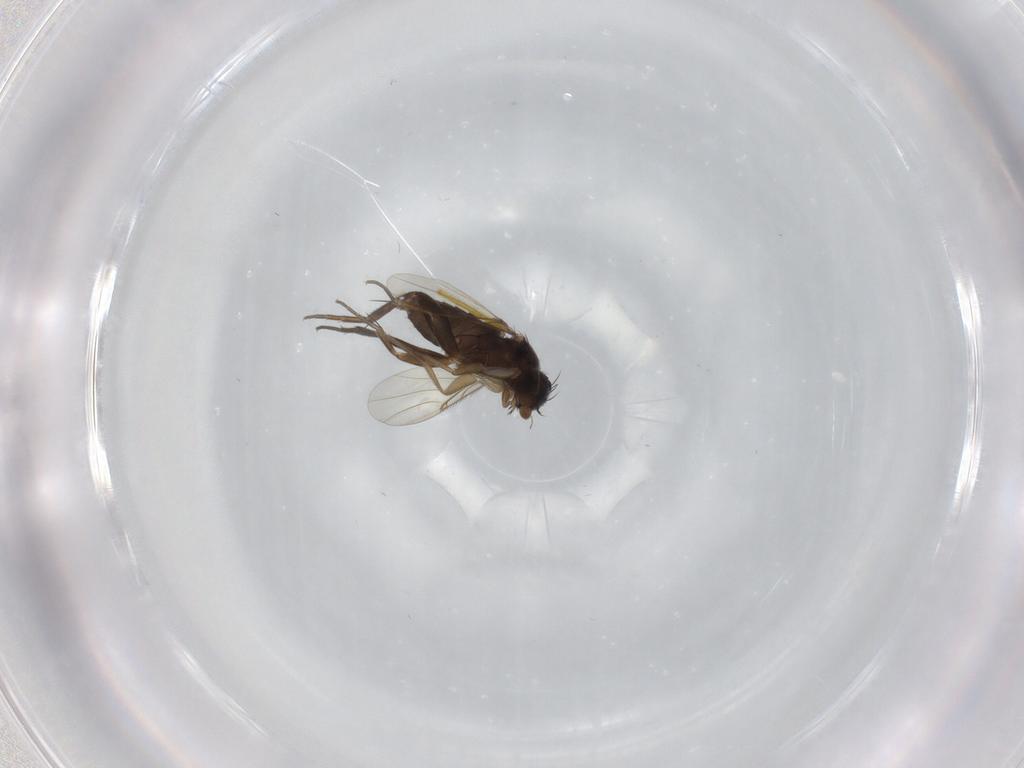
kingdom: Animalia
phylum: Arthropoda
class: Insecta
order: Diptera
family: Phoridae
